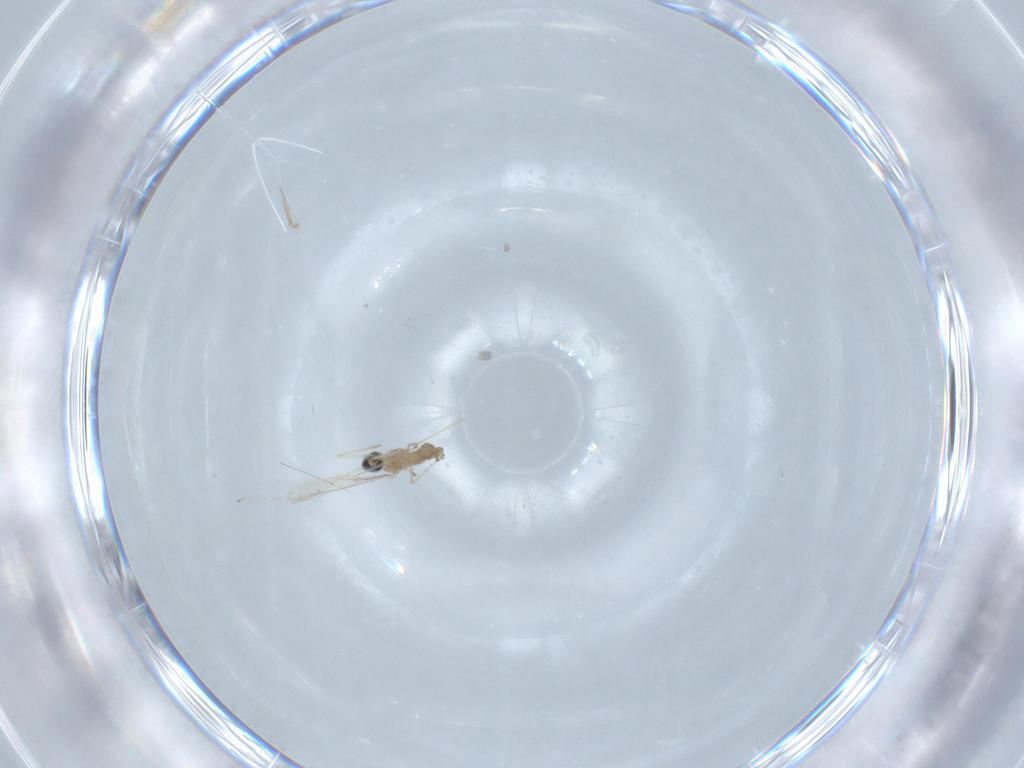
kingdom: Animalia
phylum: Arthropoda
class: Insecta
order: Diptera
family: Cecidomyiidae
